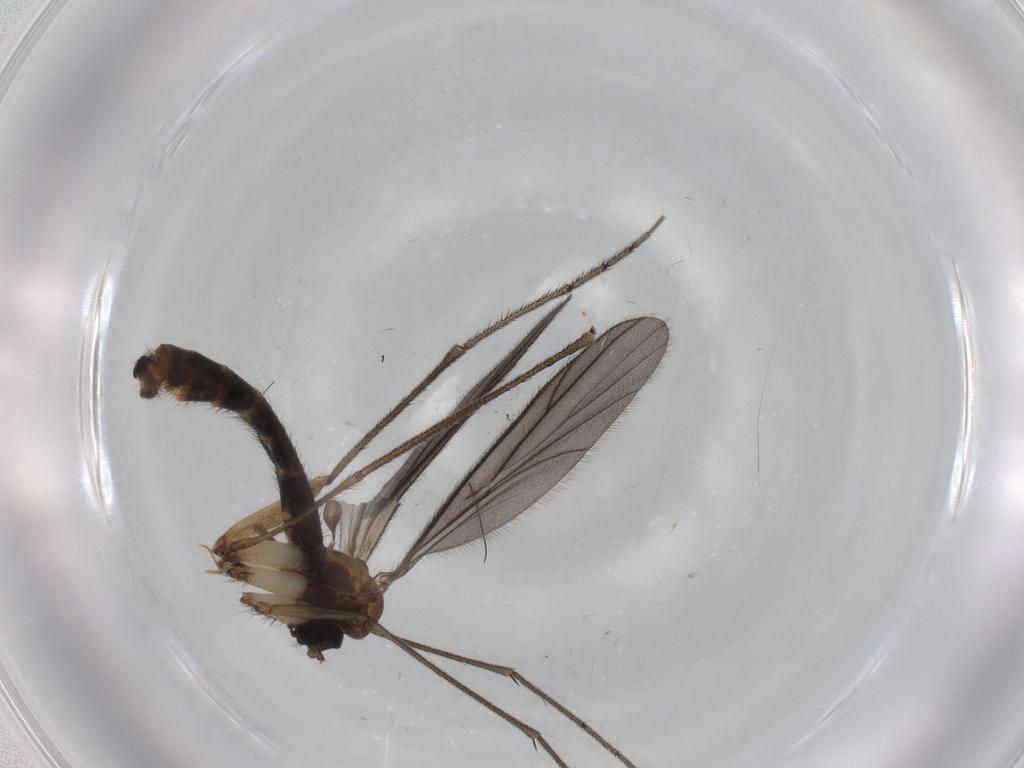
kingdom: Animalia
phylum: Arthropoda
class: Insecta
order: Diptera
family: Ditomyiidae
